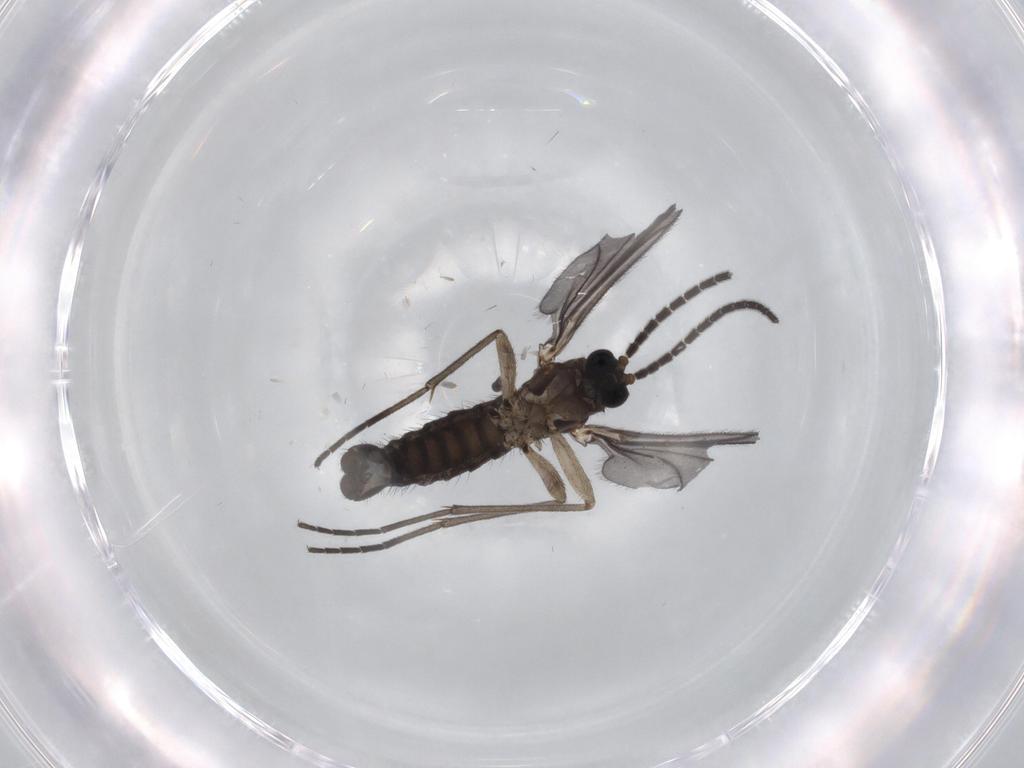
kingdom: Animalia
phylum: Arthropoda
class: Insecta
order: Diptera
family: Sciaridae
